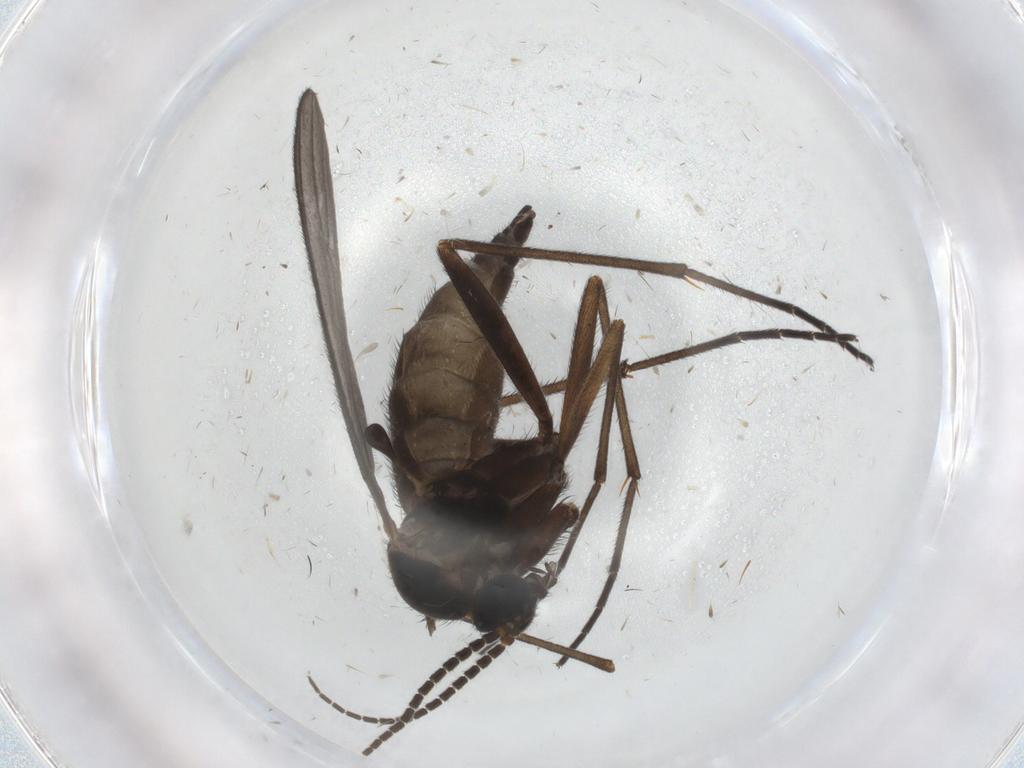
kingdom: Animalia
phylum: Arthropoda
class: Insecta
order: Diptera
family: Sciaridae
